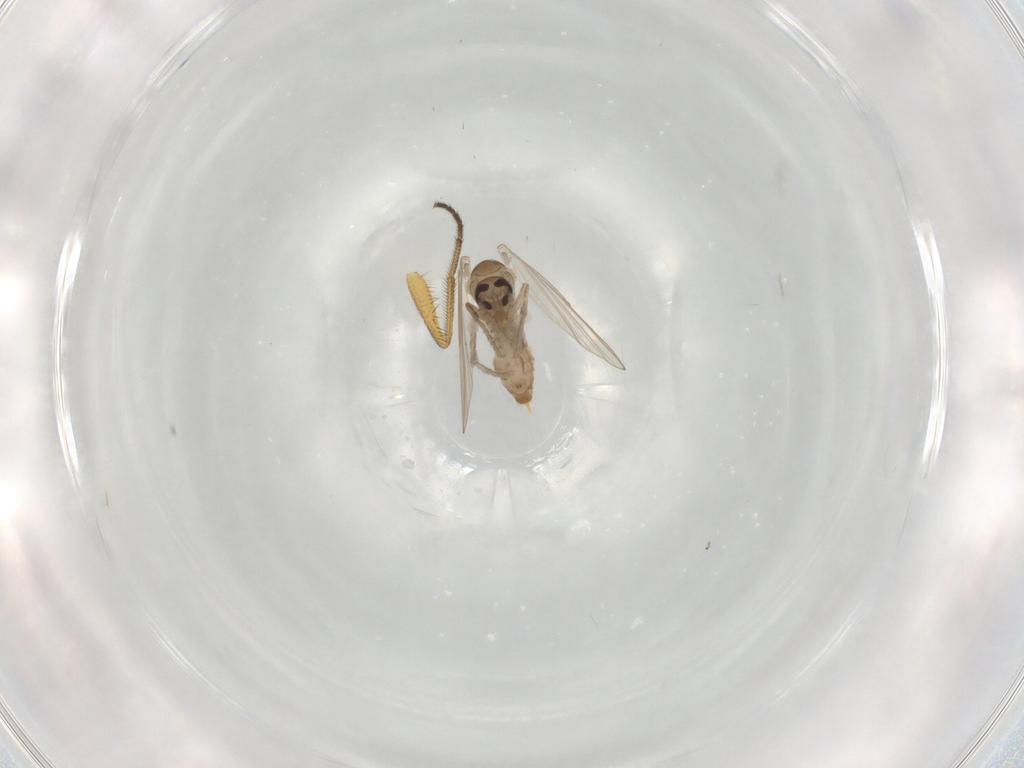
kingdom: Animalia
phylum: Arthropoda
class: Insecta
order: Diptera
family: Psychodidae
